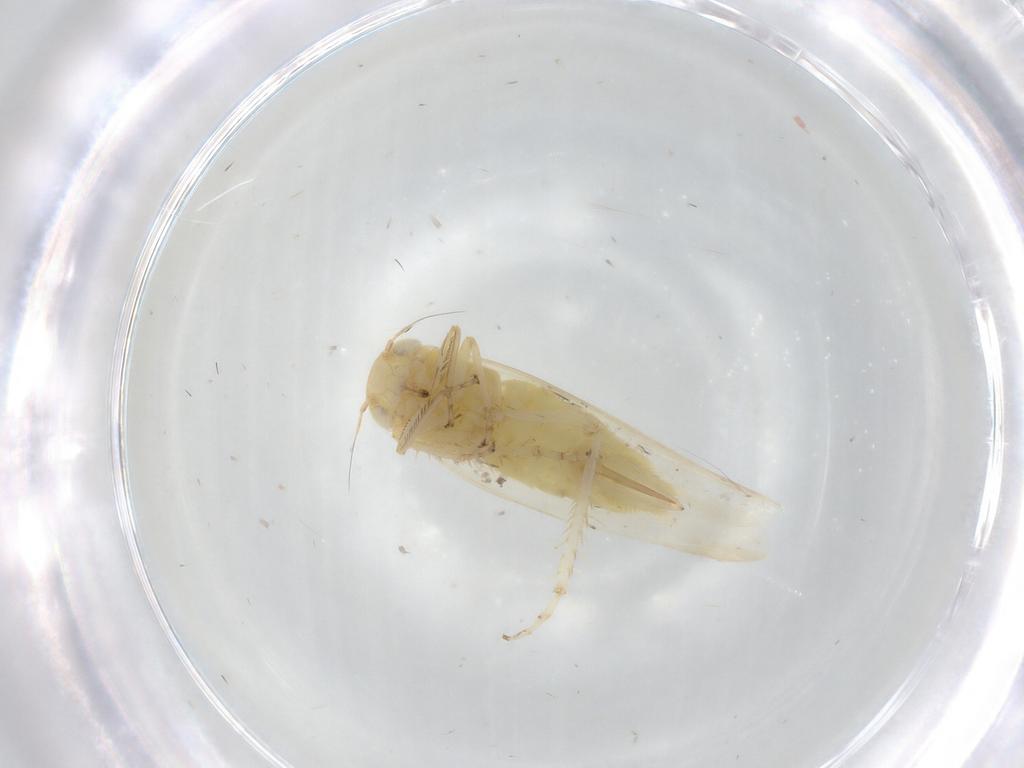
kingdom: Animalia
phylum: Arthropoda
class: Insecta
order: Hemiptera
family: Cicadellidae
